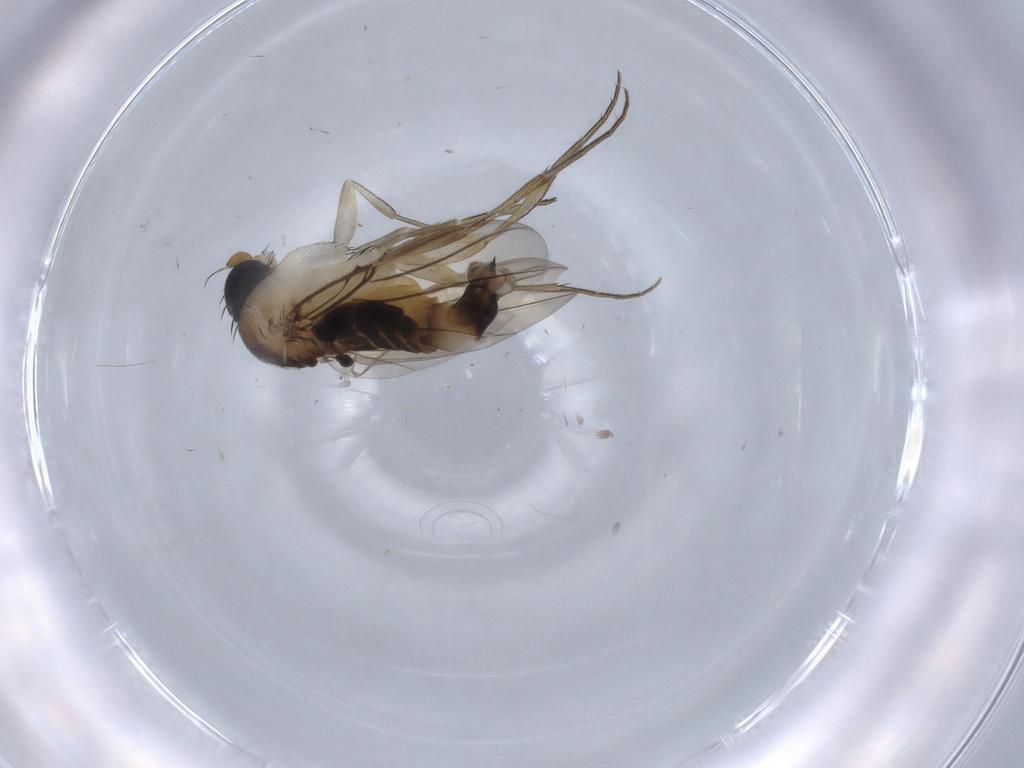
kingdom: Animalia
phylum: Arthropoda
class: Insecta
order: Diptera
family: Phoridae
